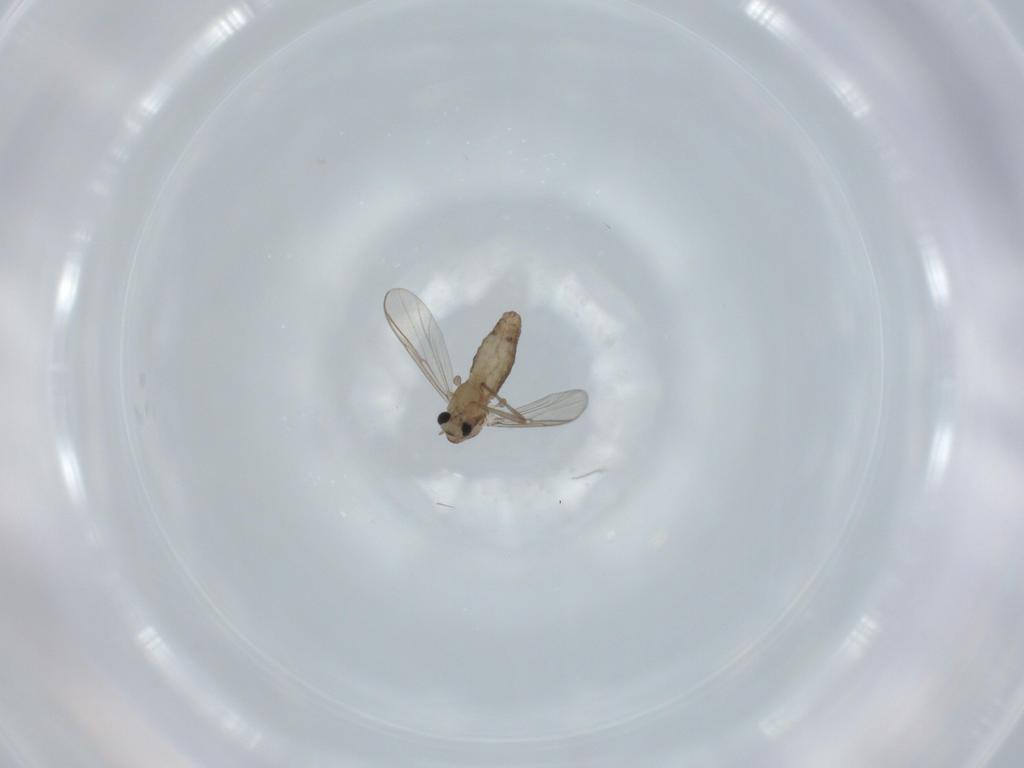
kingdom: Animalia
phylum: Arthropoda
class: Insecta
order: Diptera
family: Chironomidae
